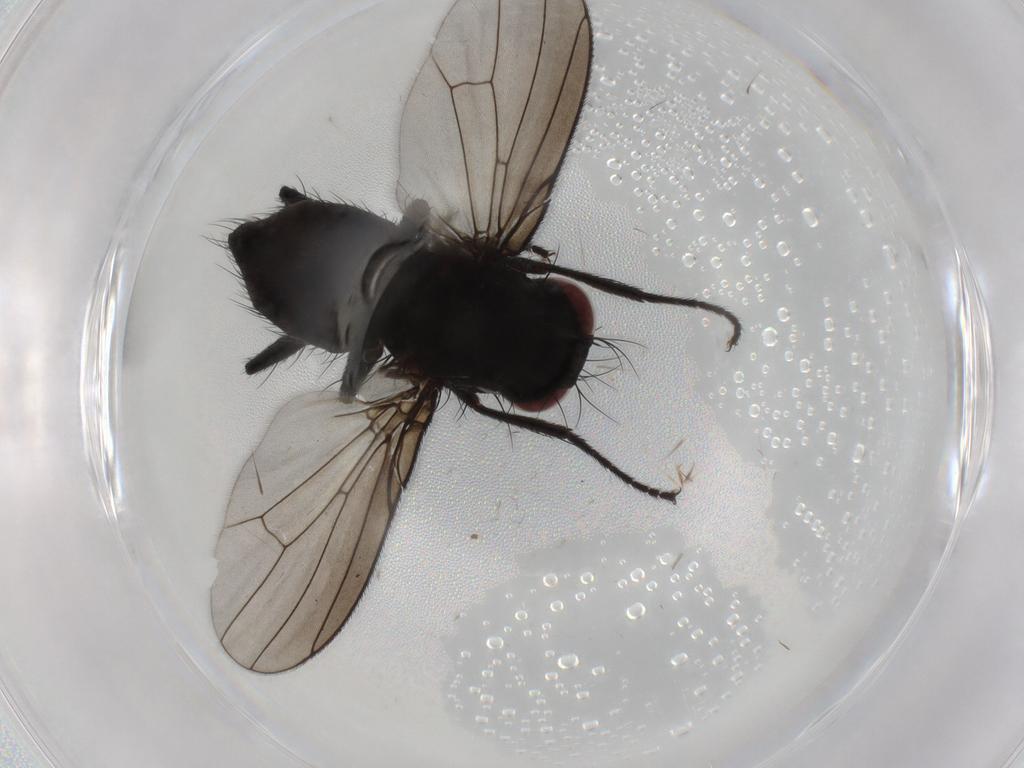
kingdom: Animalia
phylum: Arthropoda
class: Insecta
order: Diptera
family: Muscidae
